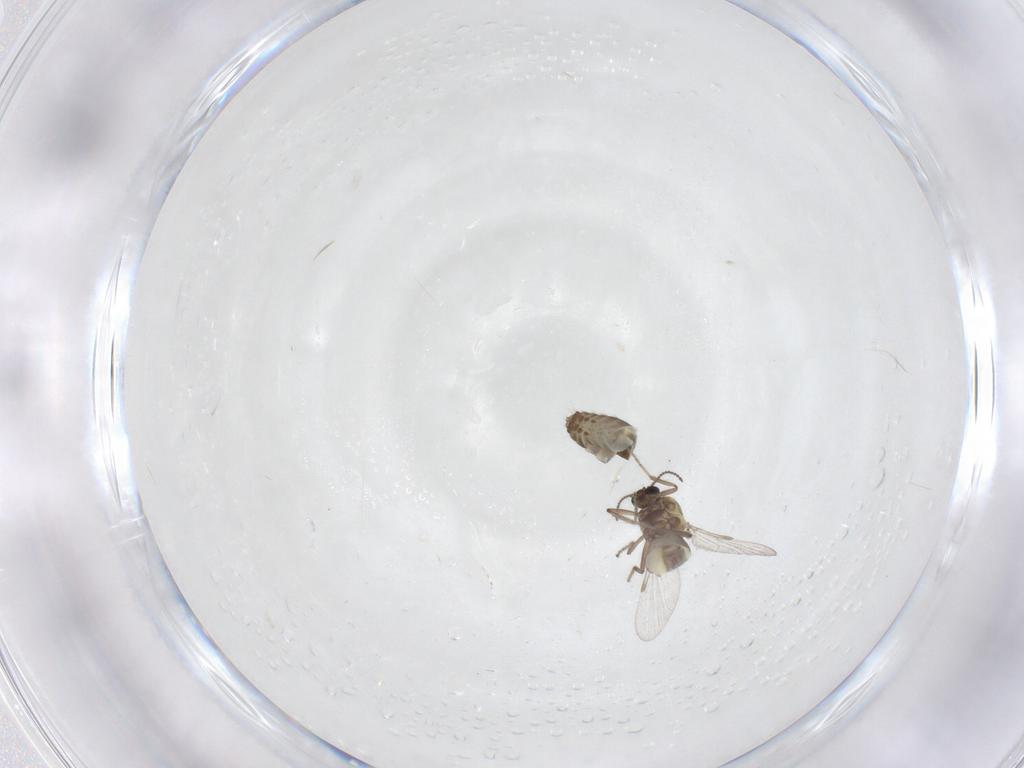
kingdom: Animalia
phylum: Arthropoda
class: Insecta
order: Diptera
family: Ceratopogonidae
